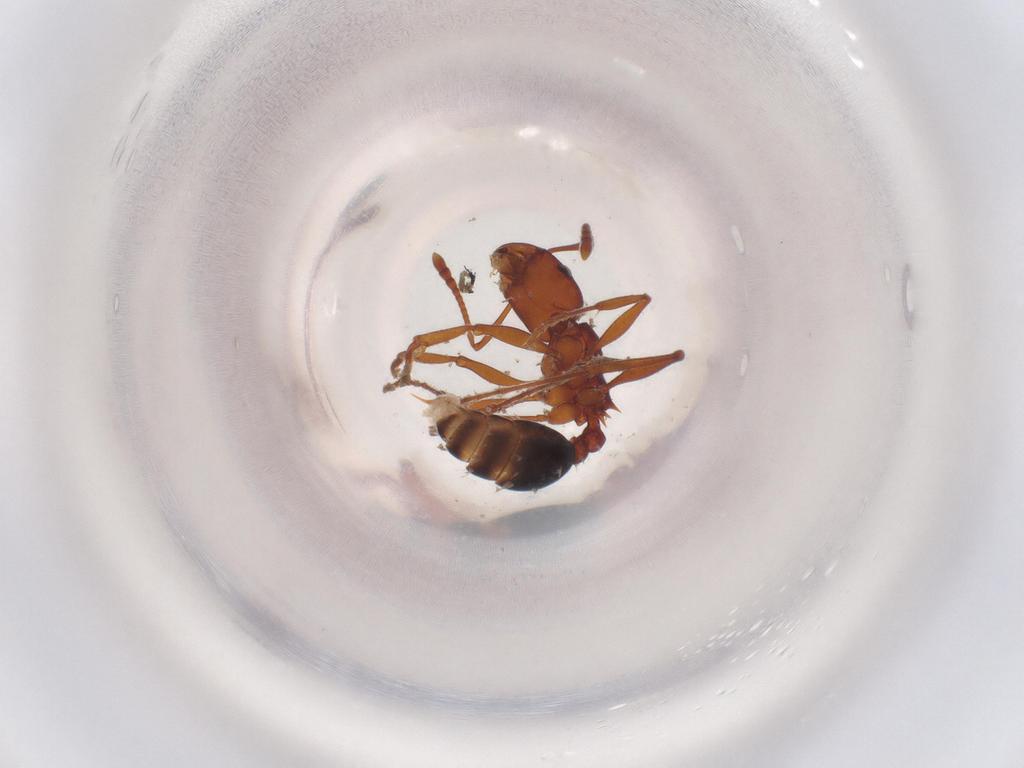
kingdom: Animalia
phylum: Arthropoda
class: Insecta
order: Hymenoptera
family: Formicidae
